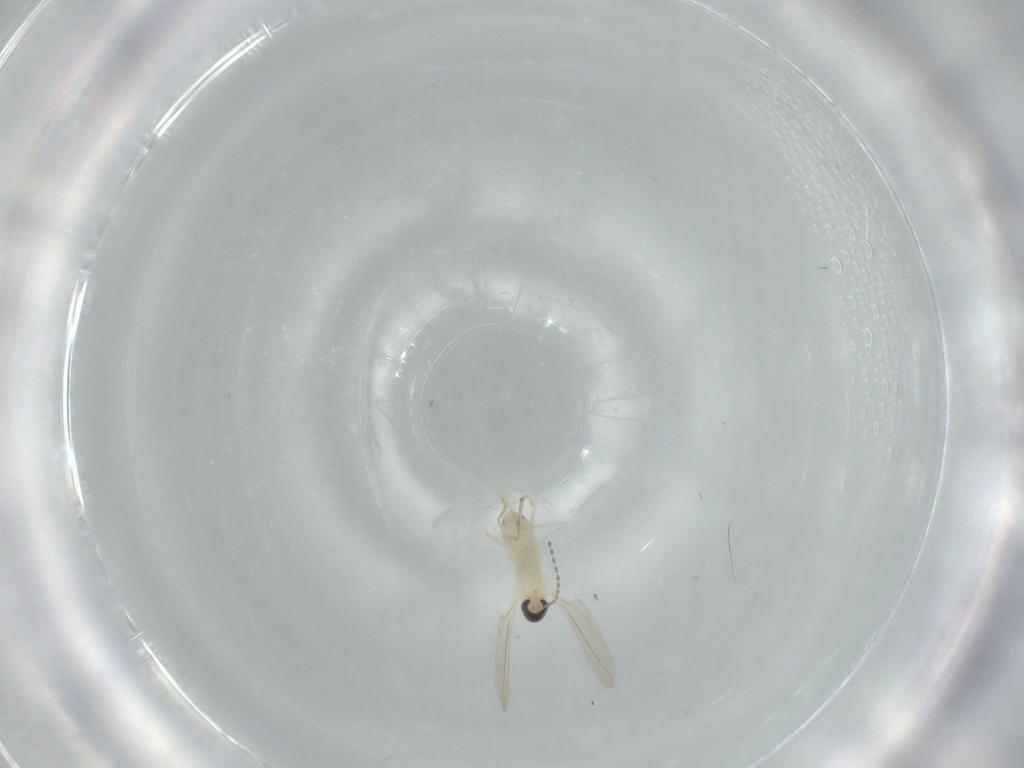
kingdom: Animalia
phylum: Arthropoda
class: Insecta
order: Diptera
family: Cecidomyiidae
